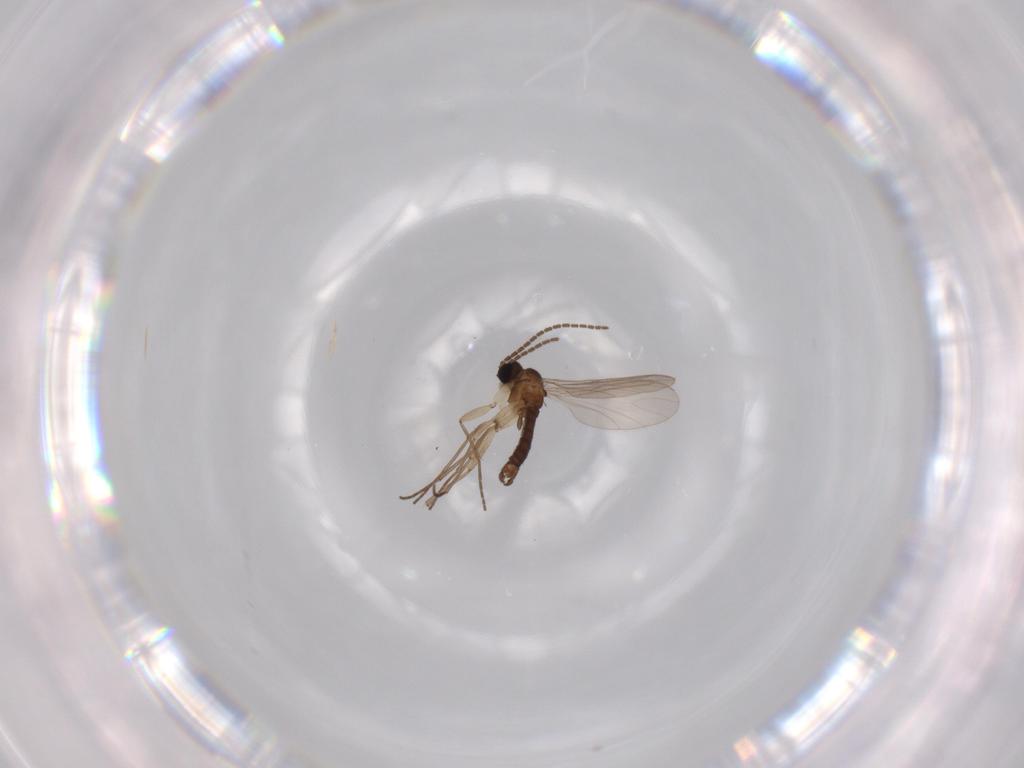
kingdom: Animalia
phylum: Arthropoda
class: Insecta
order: Diptera
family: Sciaridae
